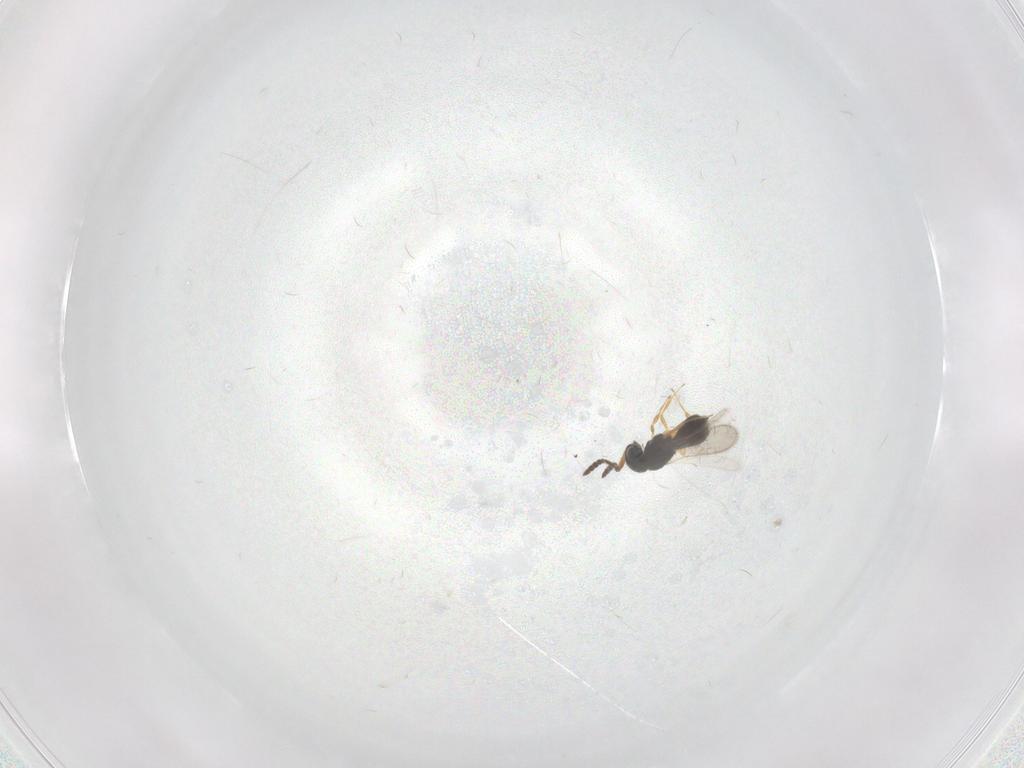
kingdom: Animalia
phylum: Arthropoda
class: Insecta
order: Hymenoptera
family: Scelionidae
